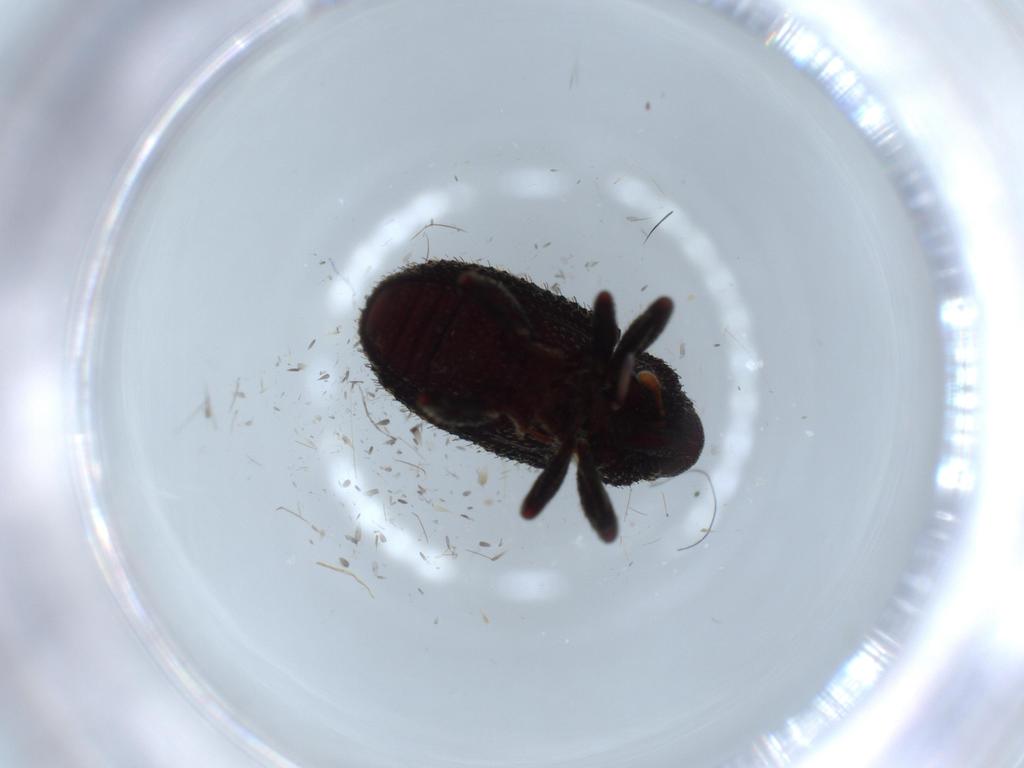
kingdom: Animalia
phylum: Arthropoda
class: Insecta
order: Coleoptera
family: Curculionidae
